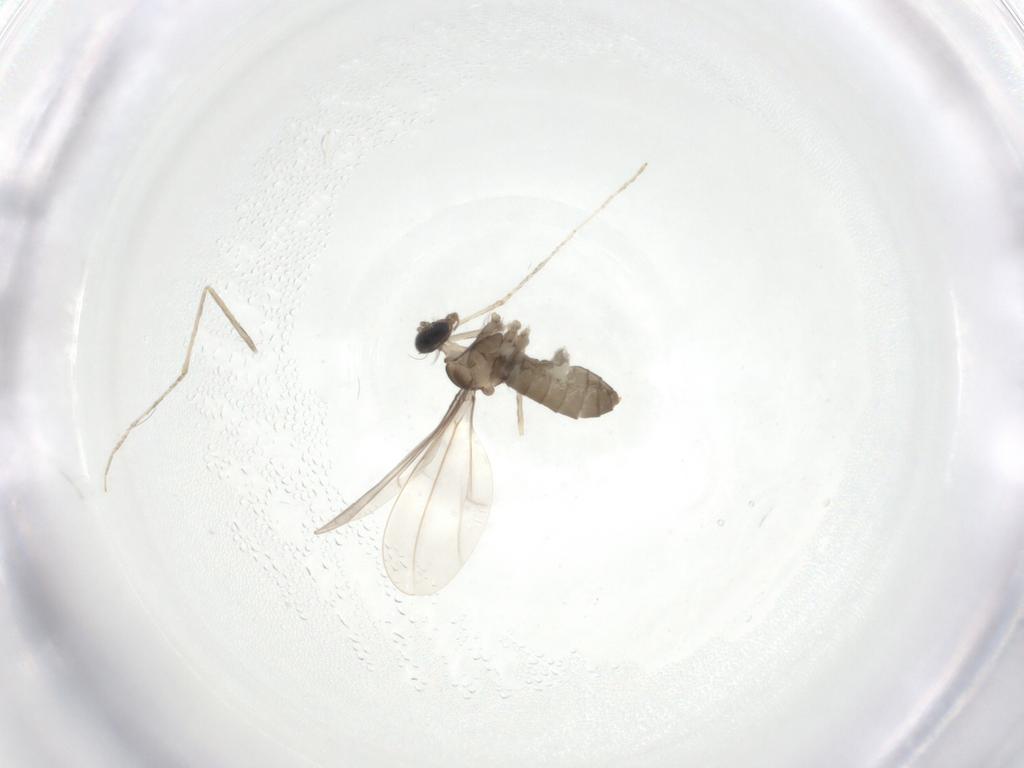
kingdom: Animalia
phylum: Arthropoda
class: Insecta
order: Diptera
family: Cecidomyiidae
